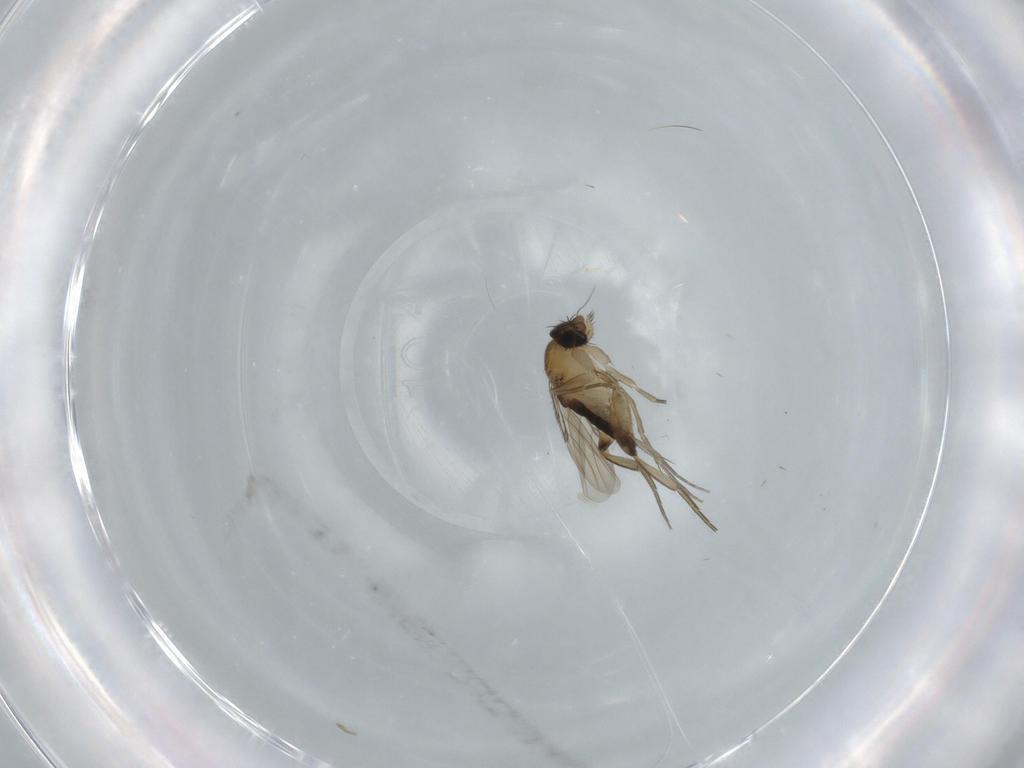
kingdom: Animalia
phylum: Arthropoda
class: Insecta
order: Diptera
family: Phoridae
